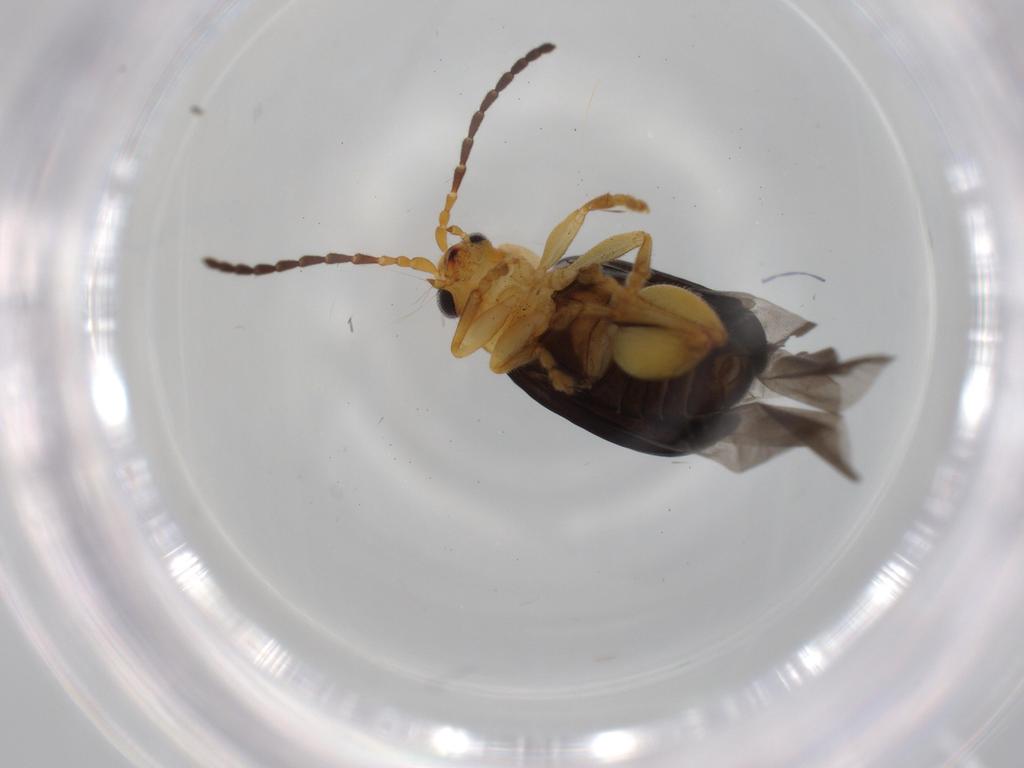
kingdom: Animalia
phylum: Arthropoda
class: Insecta
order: Coleoptera
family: Chrysomelidae
